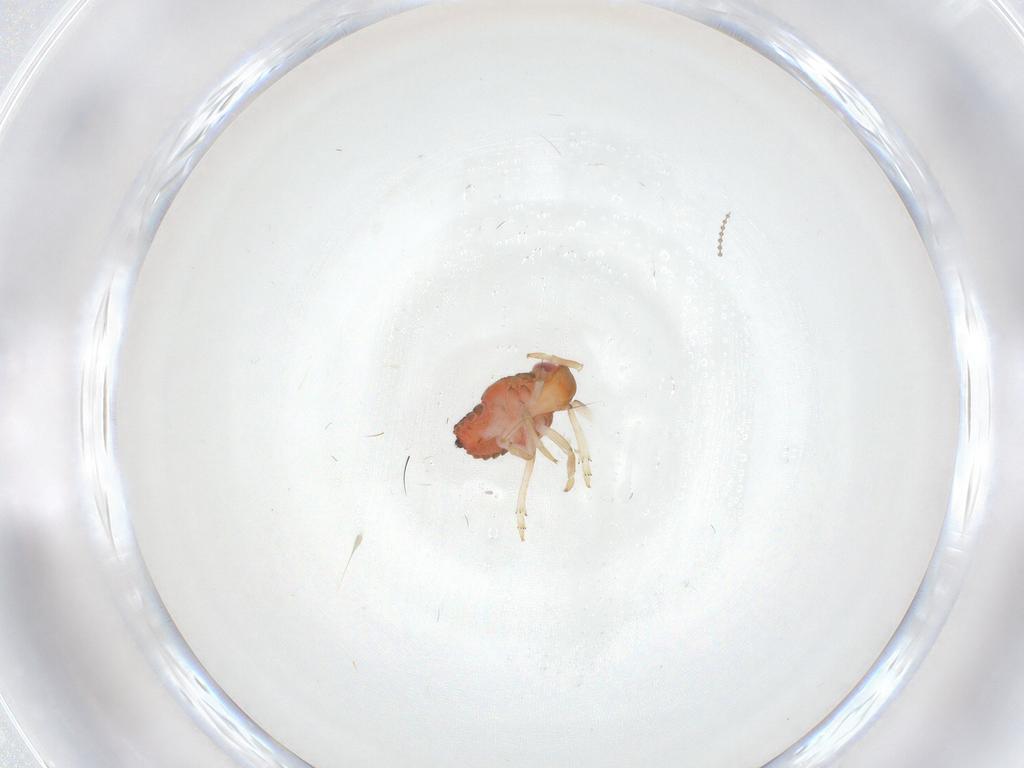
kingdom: Animalia
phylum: Arthropoda
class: Insecta
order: Hemiptera
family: Issidae
